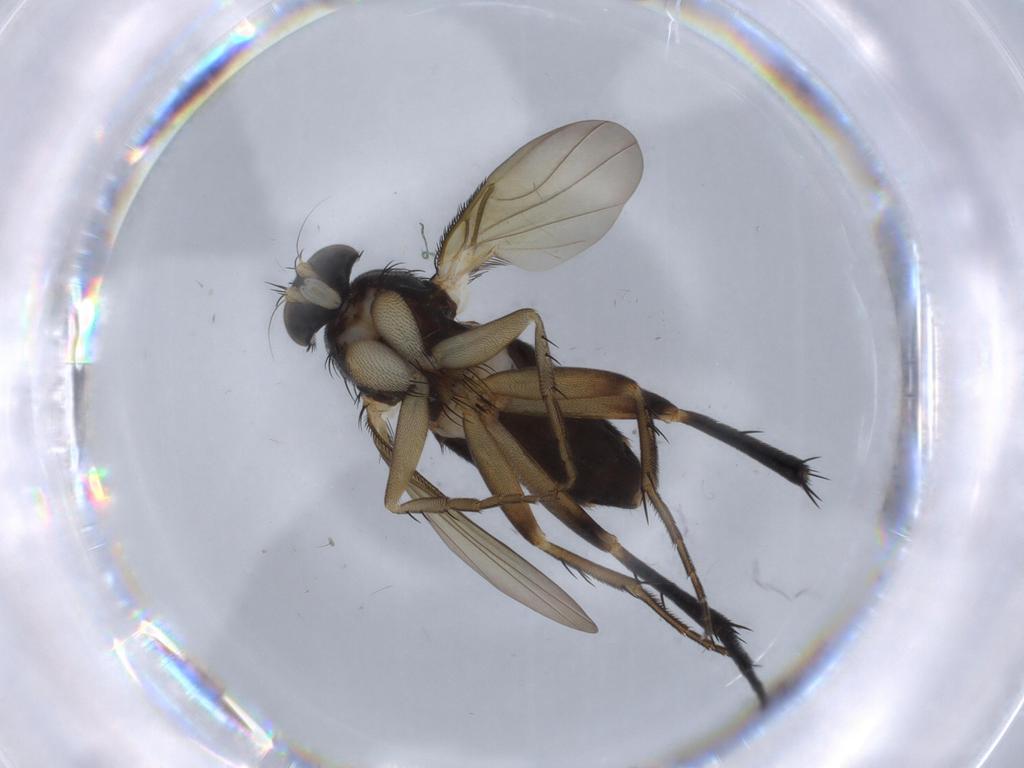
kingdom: Animalia
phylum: Arthropoda
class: Insecta
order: Diptera
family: Phoridae
